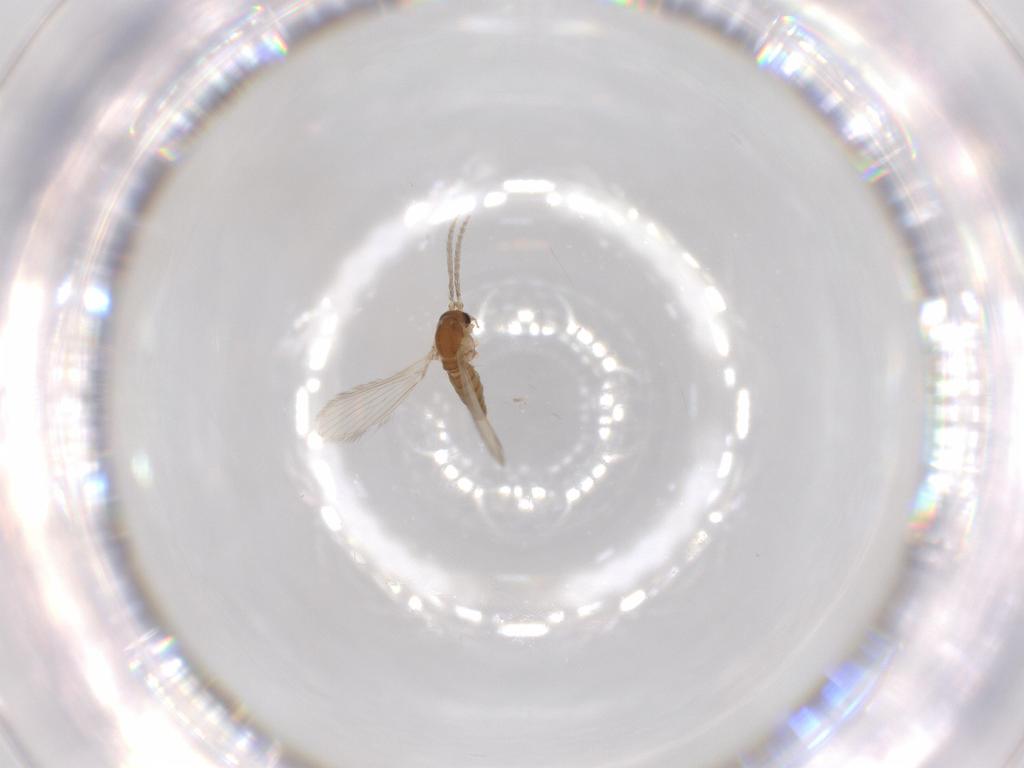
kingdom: Animalia
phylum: Arthropoda
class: Insecta
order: Diptera
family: Psychodidae
